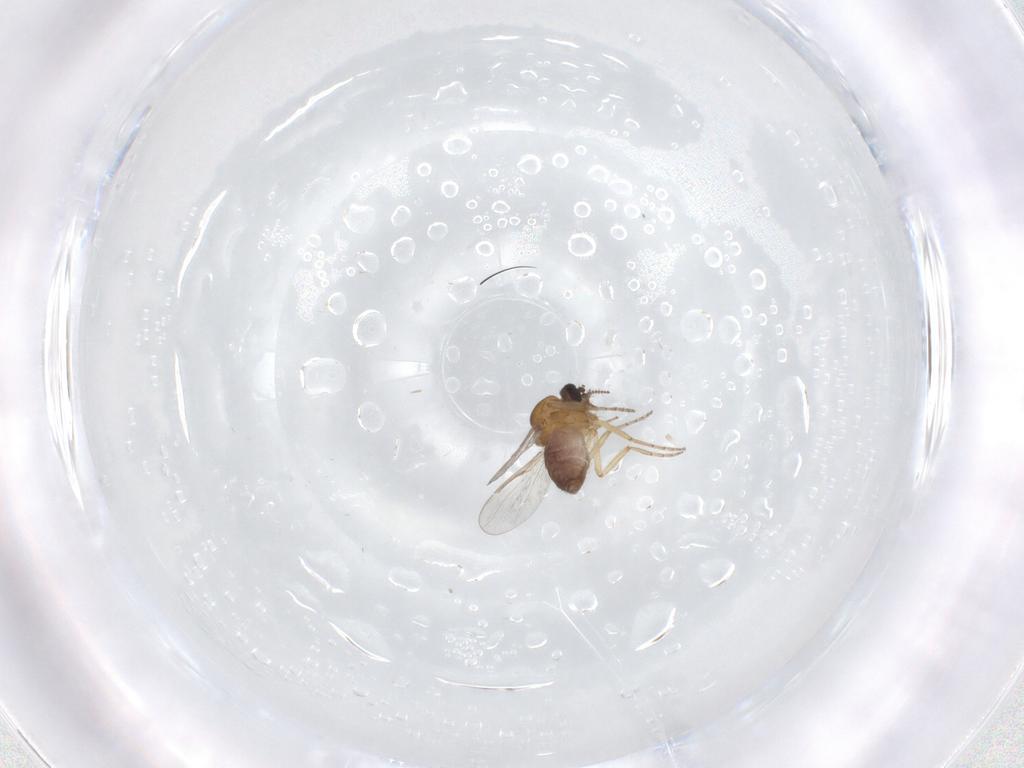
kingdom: Animalia
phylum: Arthropoda
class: Insecta
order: Diptera
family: Ceratopogonidae
